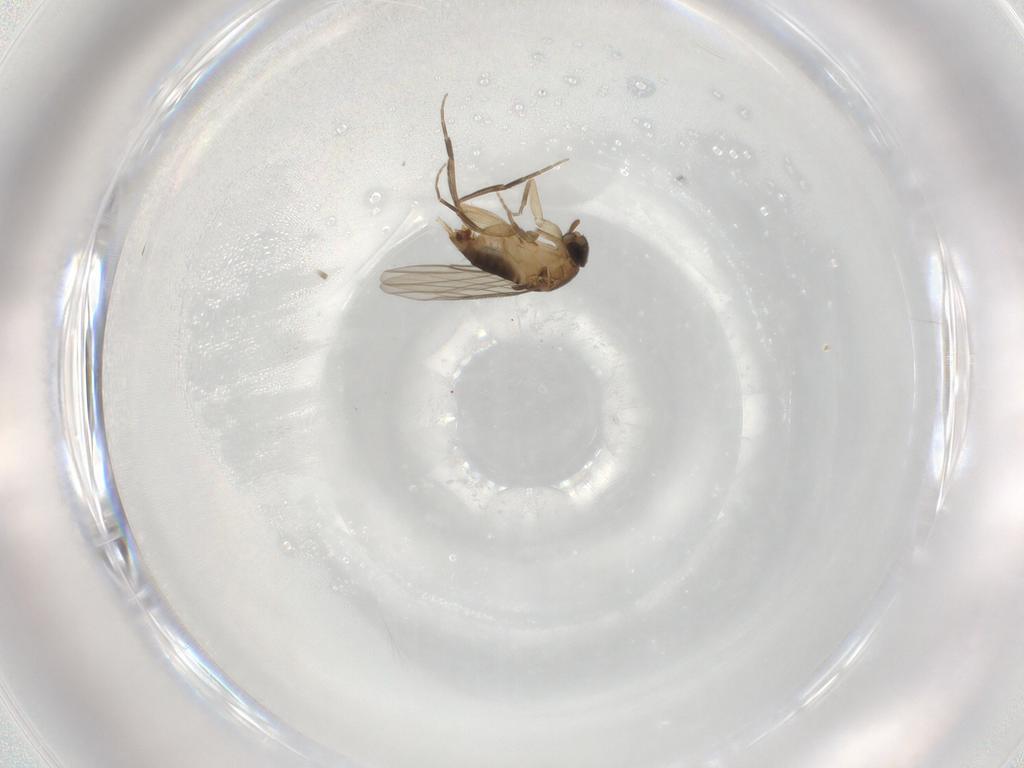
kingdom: Animalia
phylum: Arthropoda
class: Insecta
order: Diptera
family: Phoridae
